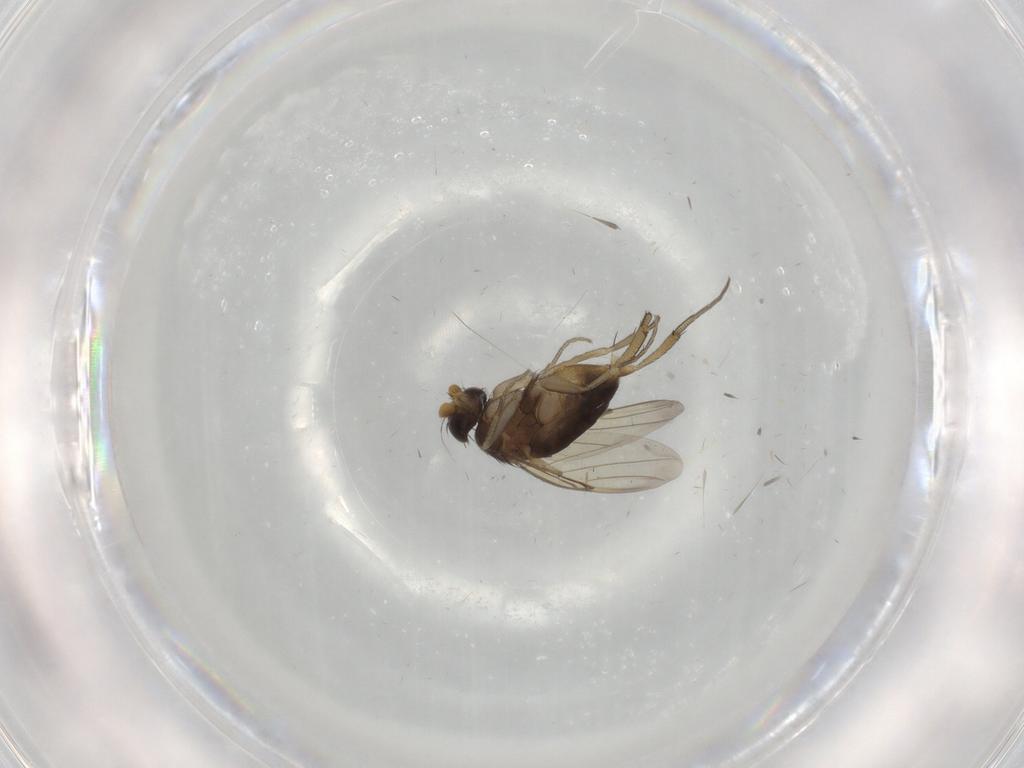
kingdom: Animalia
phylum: Arthropoda
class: Insecta
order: Diptera
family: Phoridae
